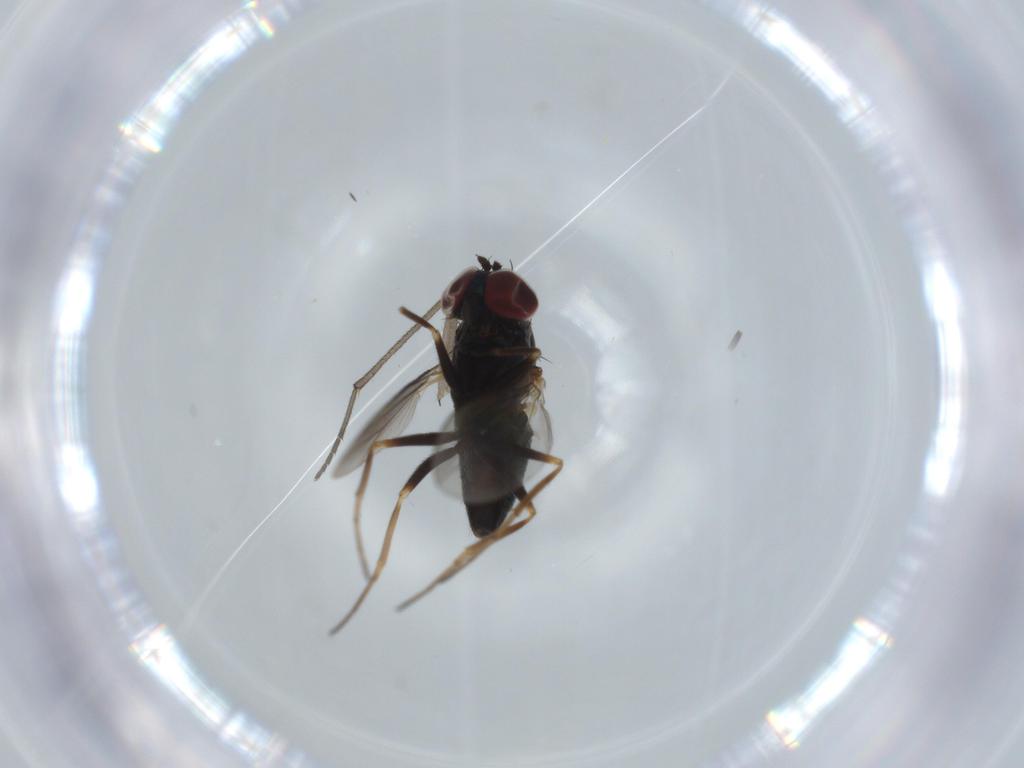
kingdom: Animalia
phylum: Arthropoda
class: Insecta
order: Diptera
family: Dolichopodidae
